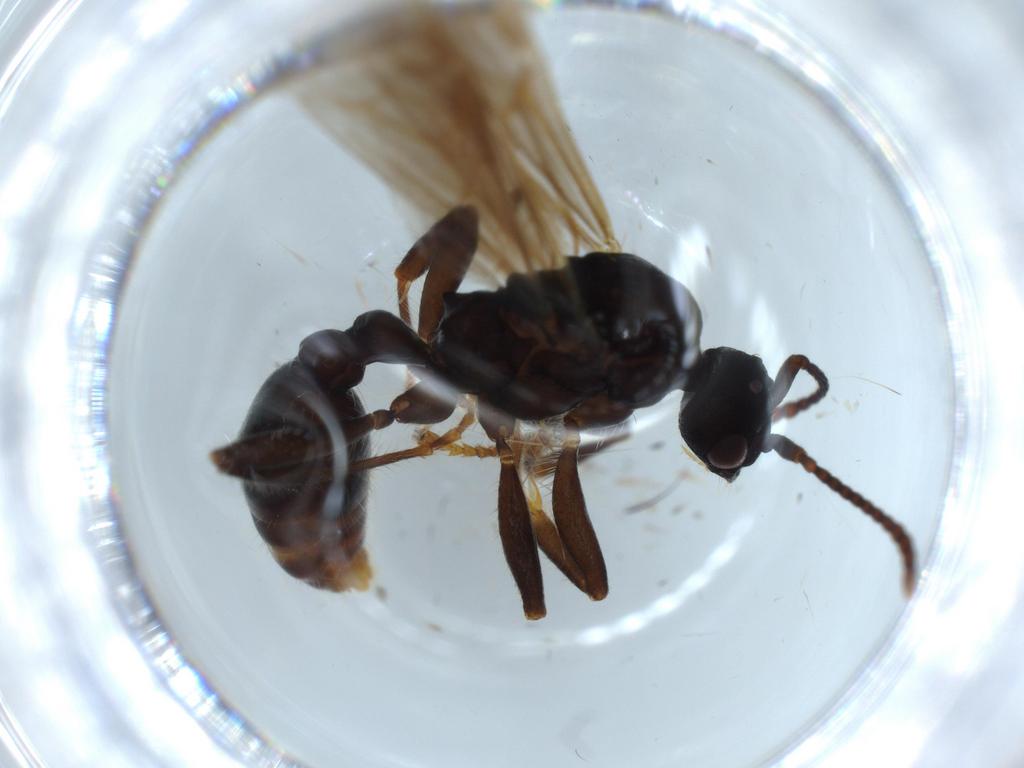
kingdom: Animalia
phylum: Arthropoda
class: Insecta
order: Hymenoptera
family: Formicidae
